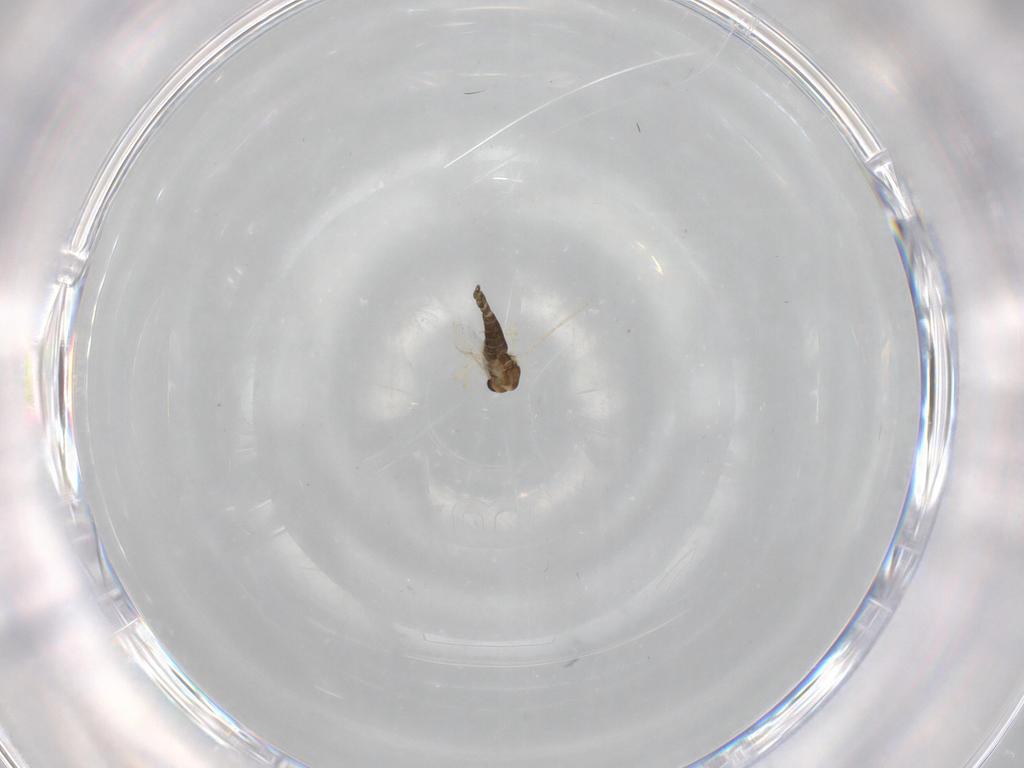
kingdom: Animalia
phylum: Arthropoda
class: Insecta
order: Diptera
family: Chironomidae
